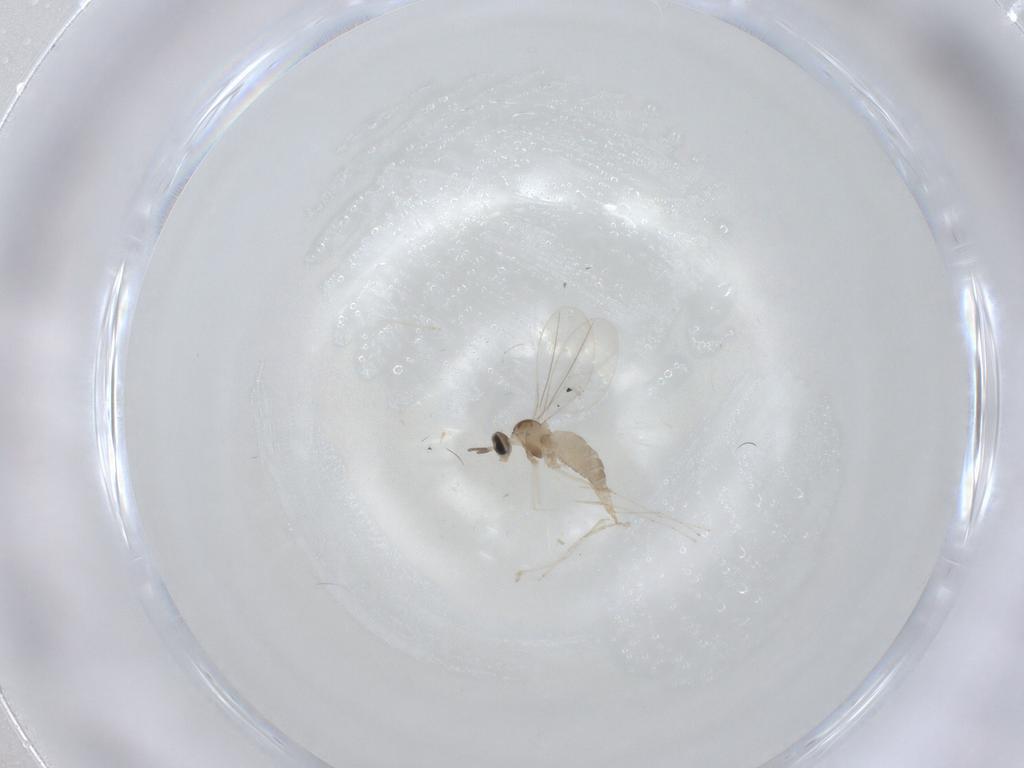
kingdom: Animalia
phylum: Arthropoda
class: Insecta
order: Diptera
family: Cecidomyiidae
